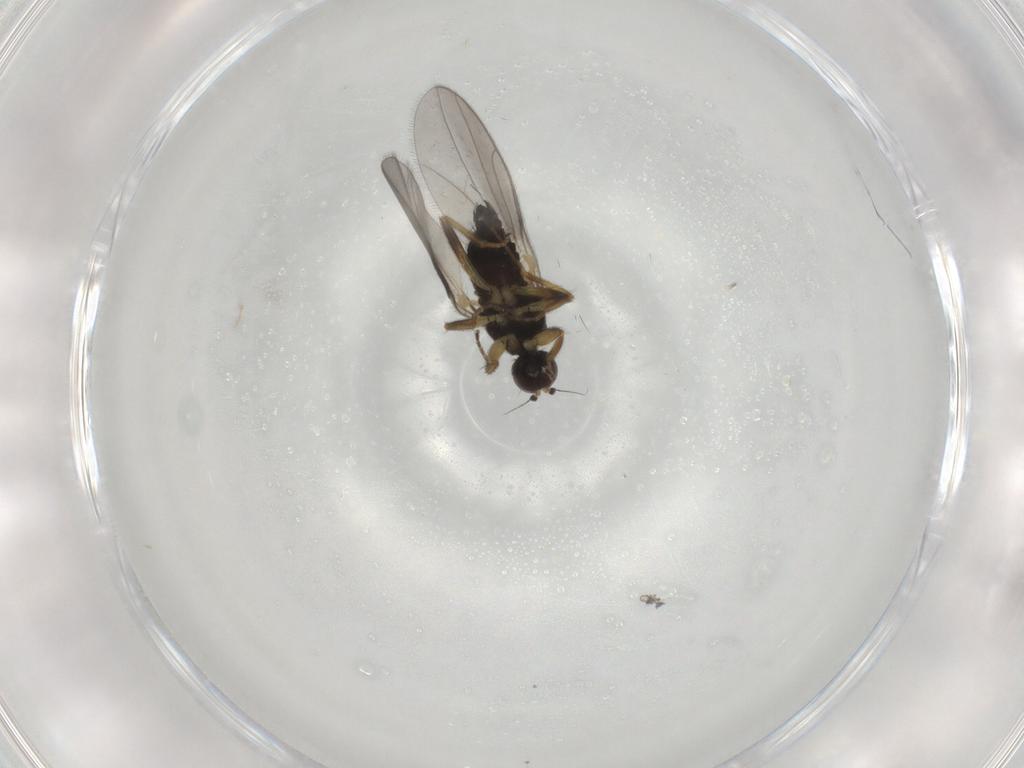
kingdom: Animalia
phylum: Arthropoda
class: Insecta
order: Diptera
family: Hybotidae
